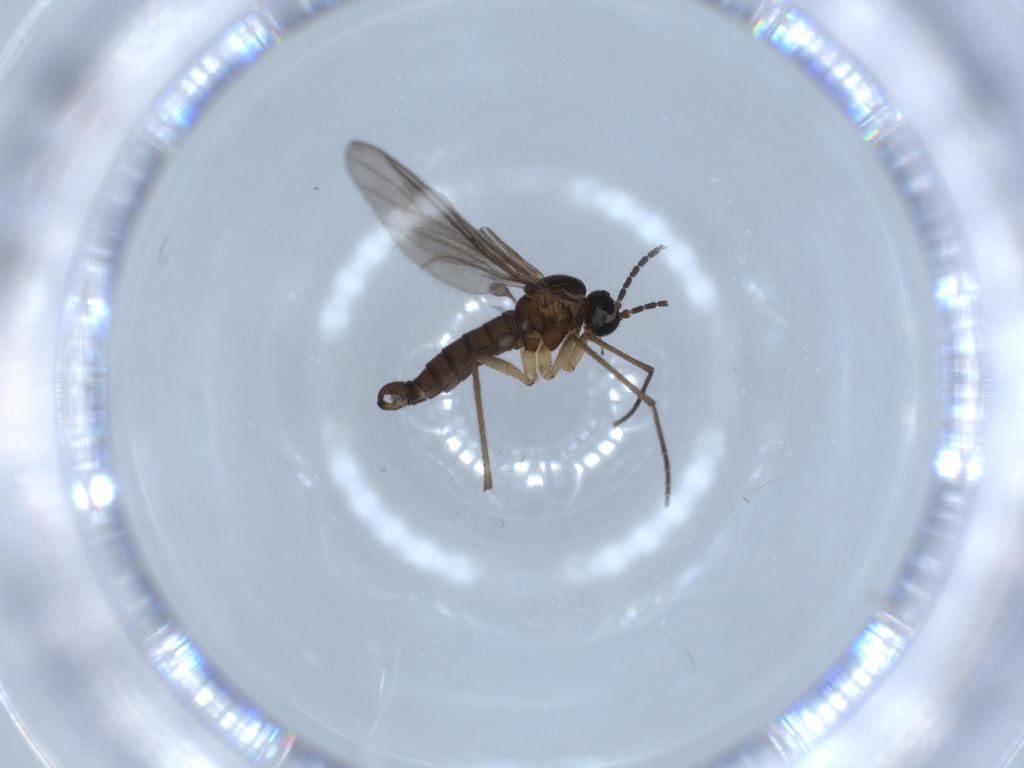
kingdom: Animalia
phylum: Arthropoda
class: Insecta
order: Diptera
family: Sciaridae
